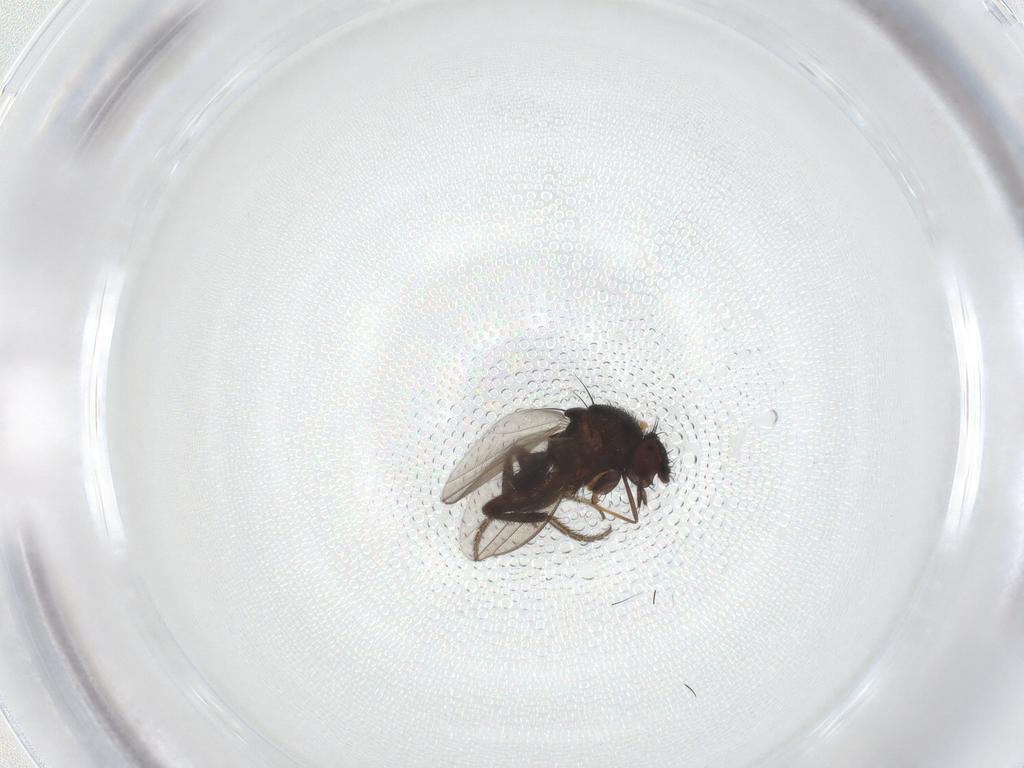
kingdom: Animalia
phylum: Arthropoda
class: Insecta
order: Diptera
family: Milichiidae
